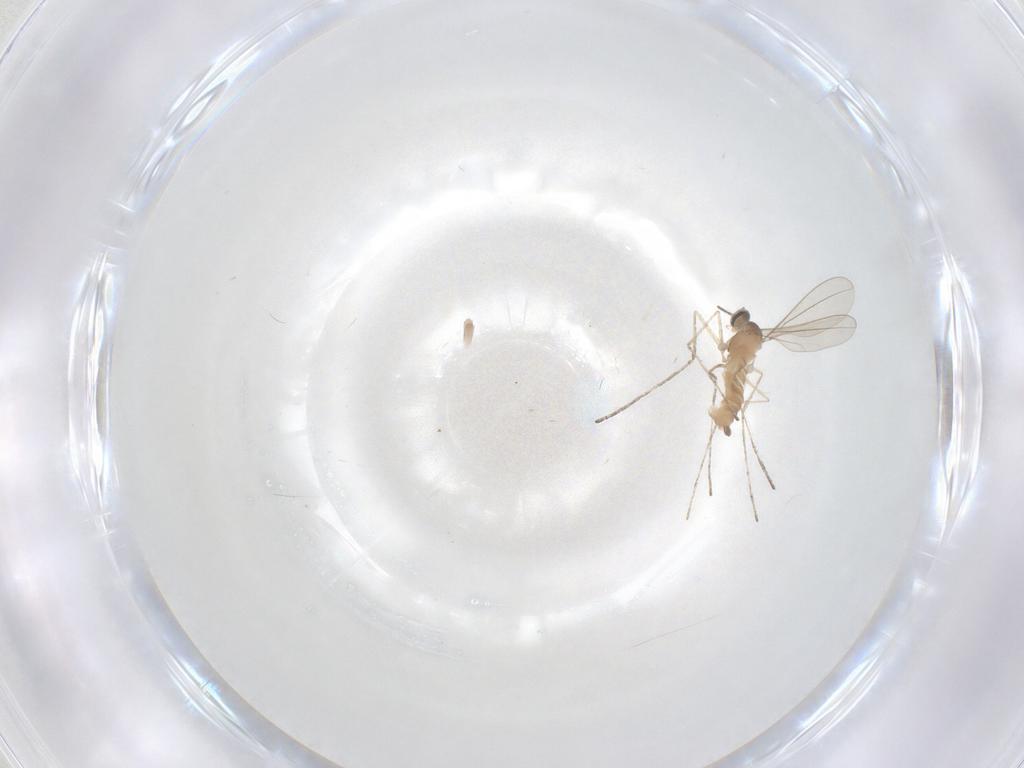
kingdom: Animalia
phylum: Arthropoda
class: Insecta
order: Diptera
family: Cecidomyiidae
